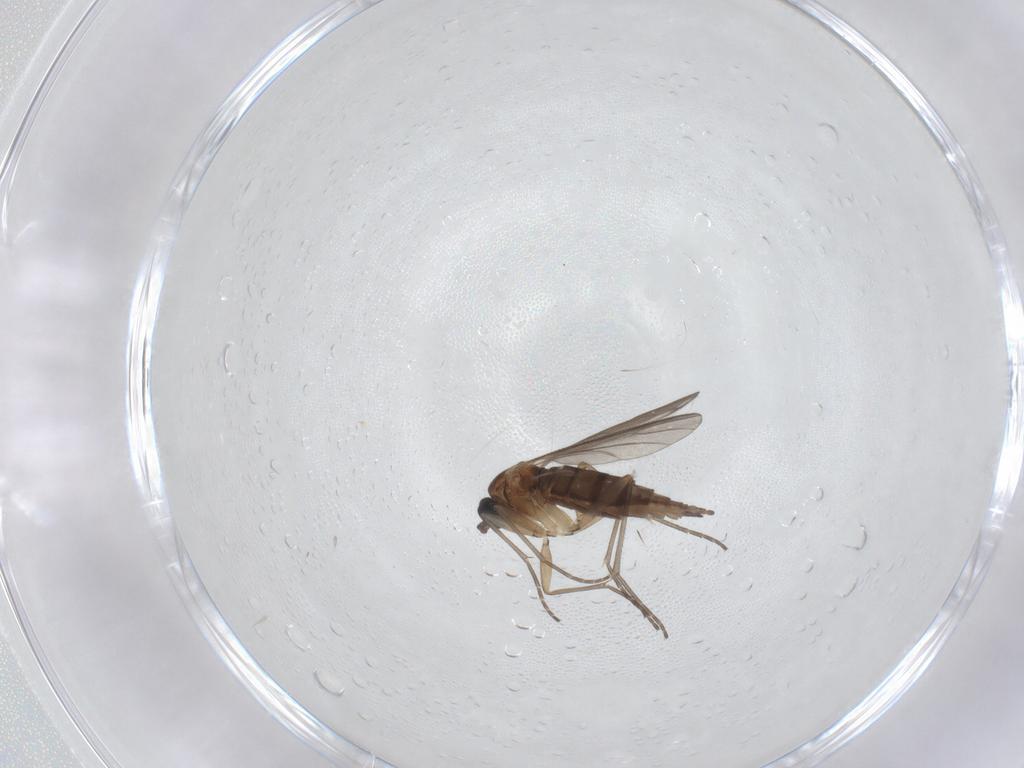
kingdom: Animalia
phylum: Arthropoda
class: Insecta
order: Diptera
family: Sciaridae
